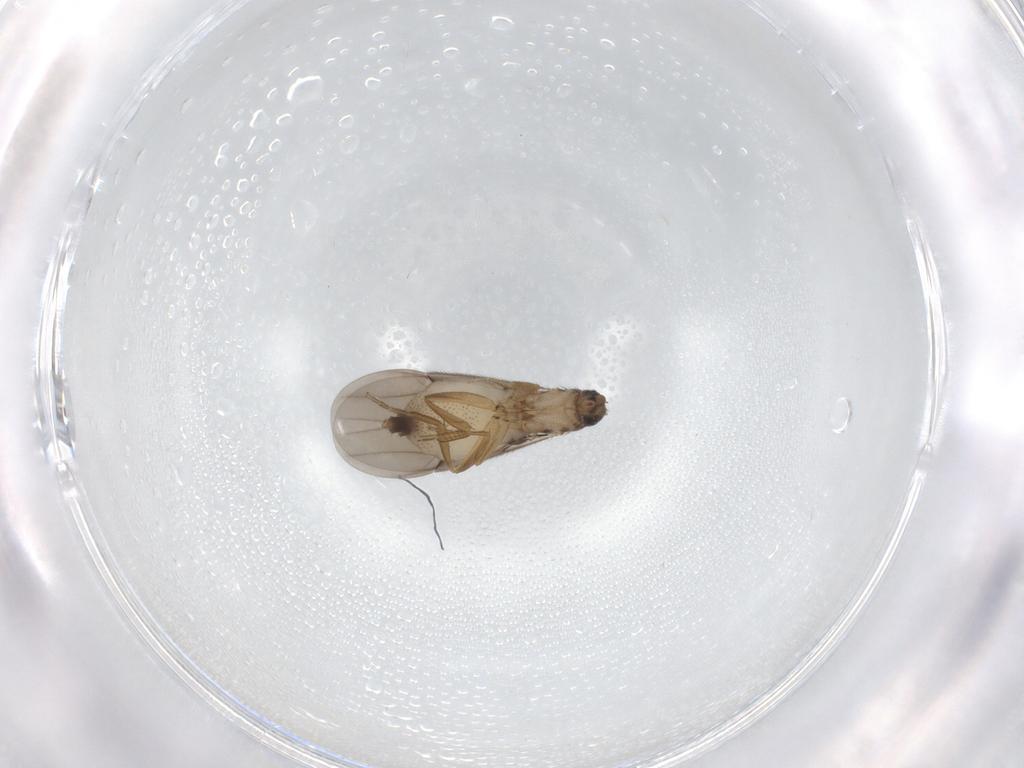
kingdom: Animalia
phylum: Arthropoda
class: Insecta
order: Diptera
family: Phoridae
